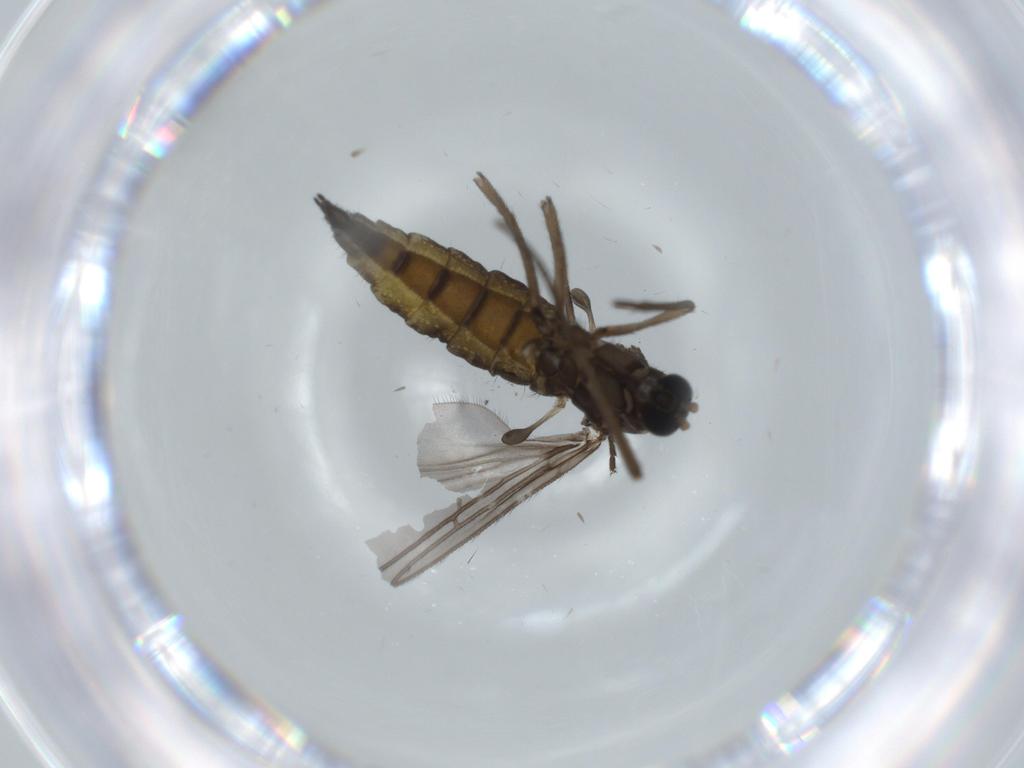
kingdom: Animalia
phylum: Arthropoda
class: Insecta
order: Diptera
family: Sciaridae
